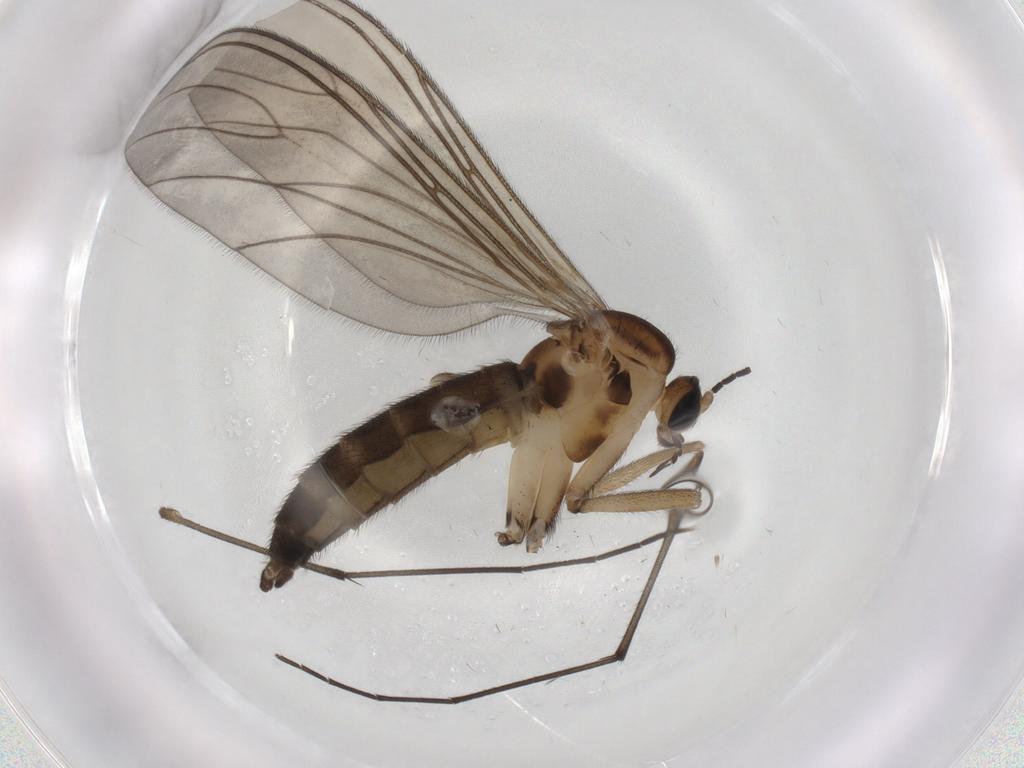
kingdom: Animalia
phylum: Arthropoda
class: Insecta
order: Diptera
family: Sciaridae
